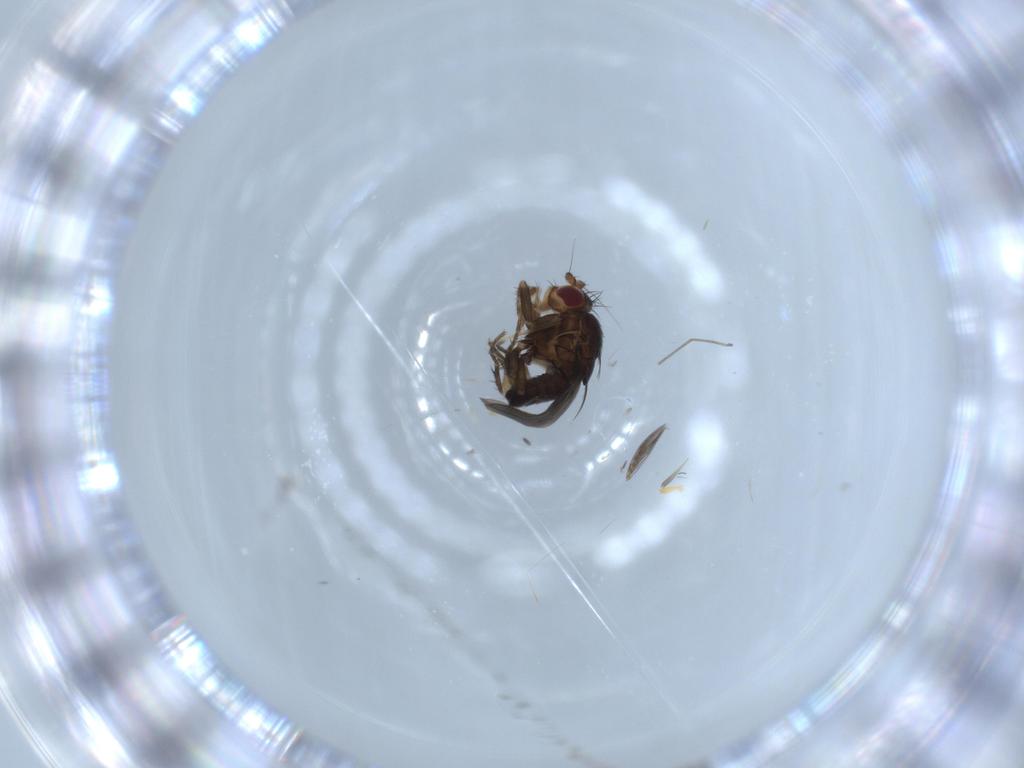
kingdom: Animalia
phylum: Arthropoda
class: Insecta
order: Diptera
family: Sphaeroceridae
